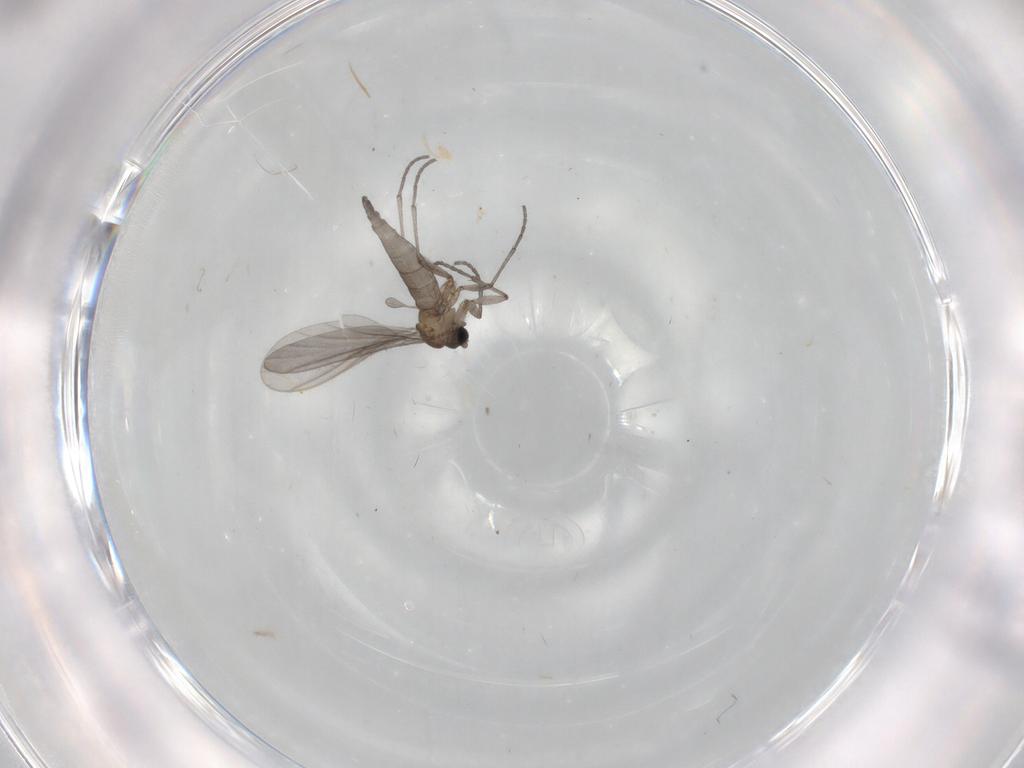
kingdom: Animalia
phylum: Arthropoda
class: Insecta
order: Diptera
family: Sciaridae
